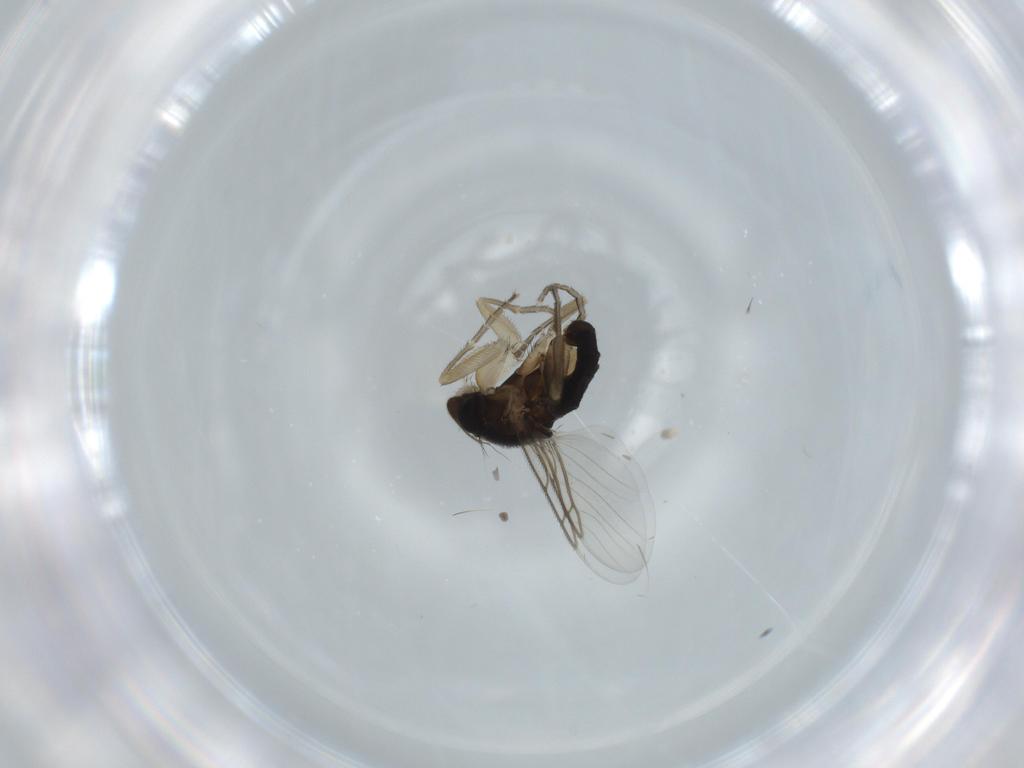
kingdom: Animalia
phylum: Arthropoda
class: Insecta
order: Diptera
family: Phoridae
